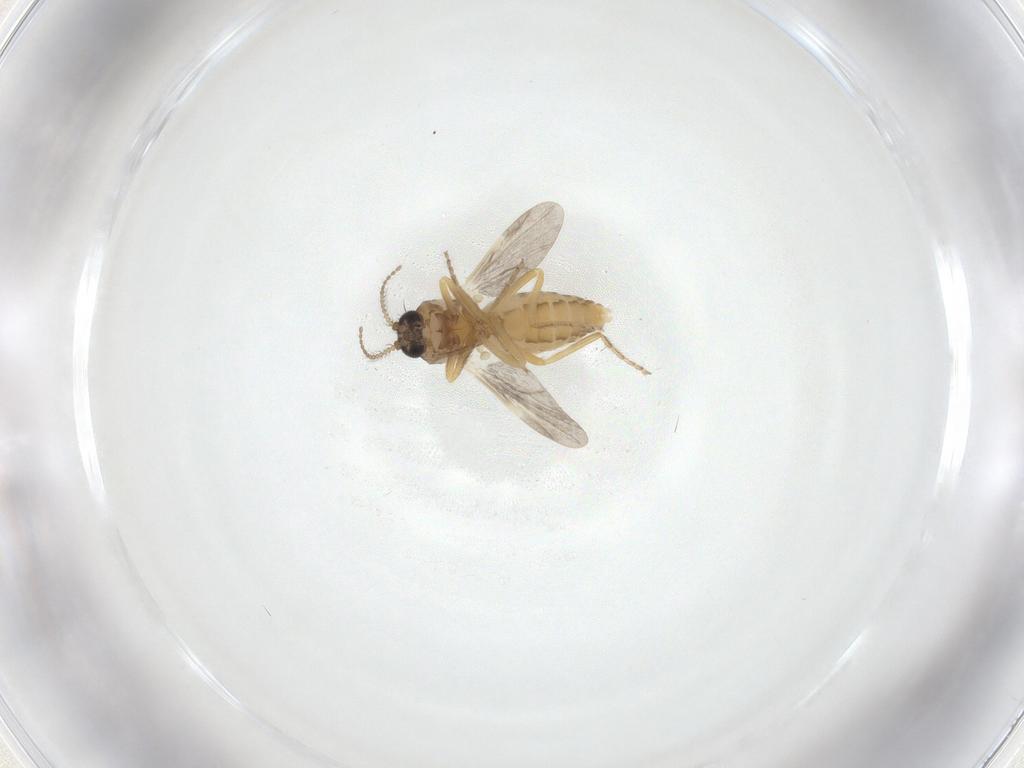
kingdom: Animalia
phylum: Arthropoda
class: Insecta
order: Diptera
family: Ceratopogonidae
